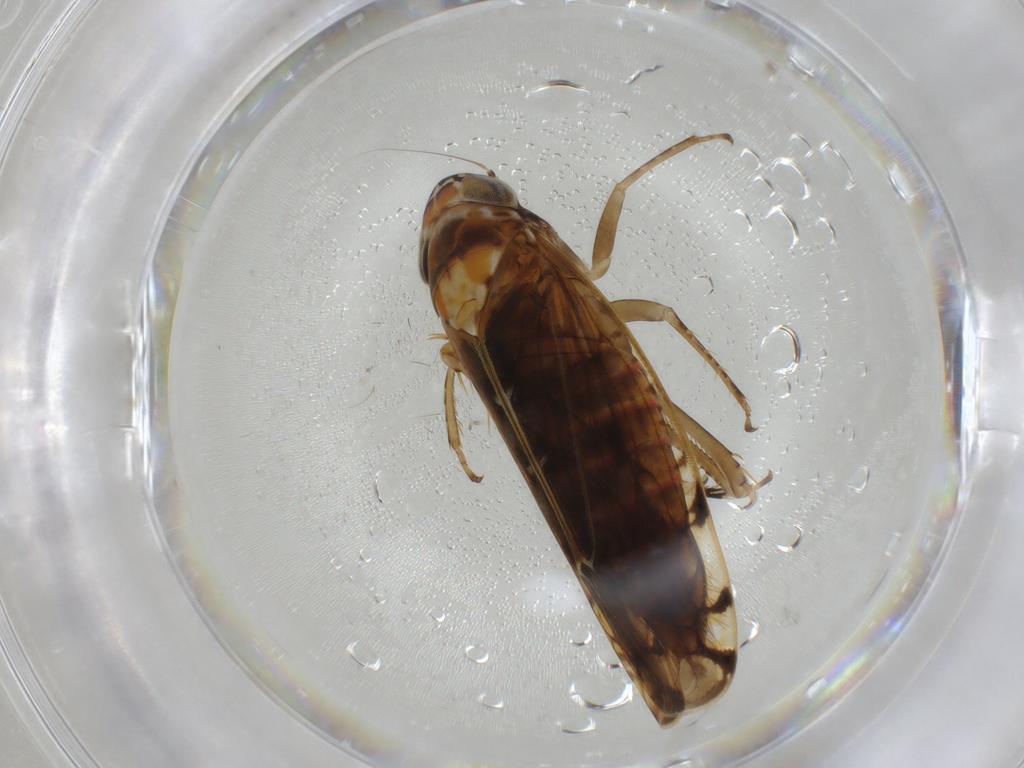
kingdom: Animalia
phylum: Arthropoda
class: Insecta
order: Hemiptera
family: Cicadellidae
